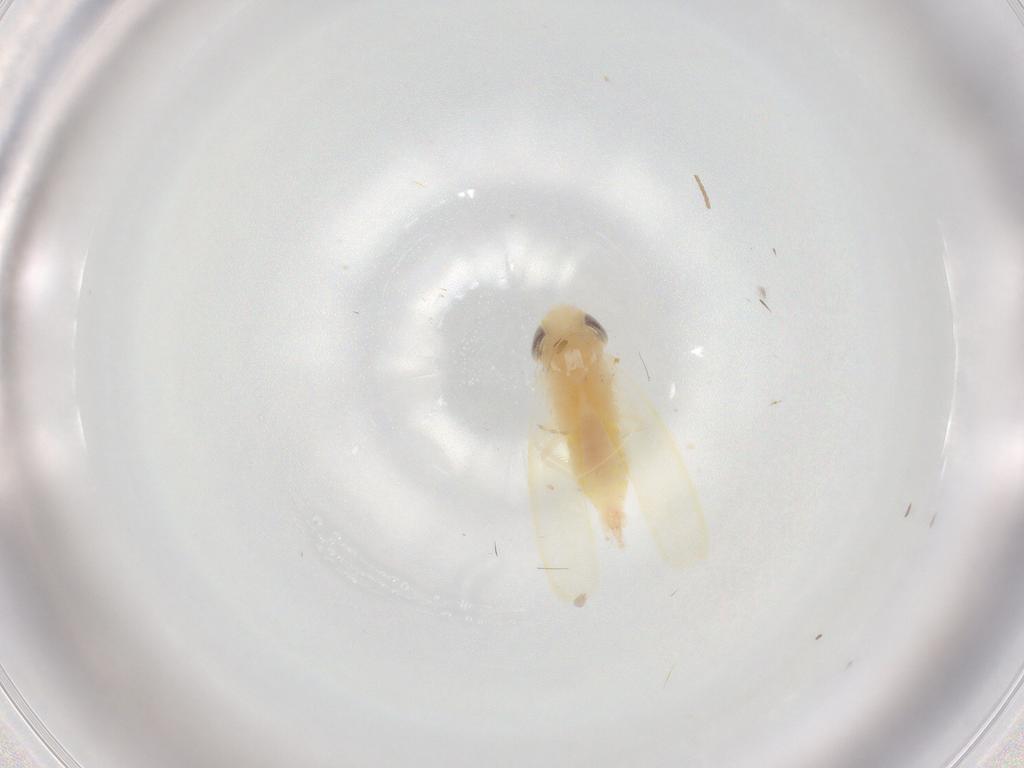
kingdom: Animalia
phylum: Arthropoda
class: Insecta
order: Hemiptera
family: Cicadellidae
